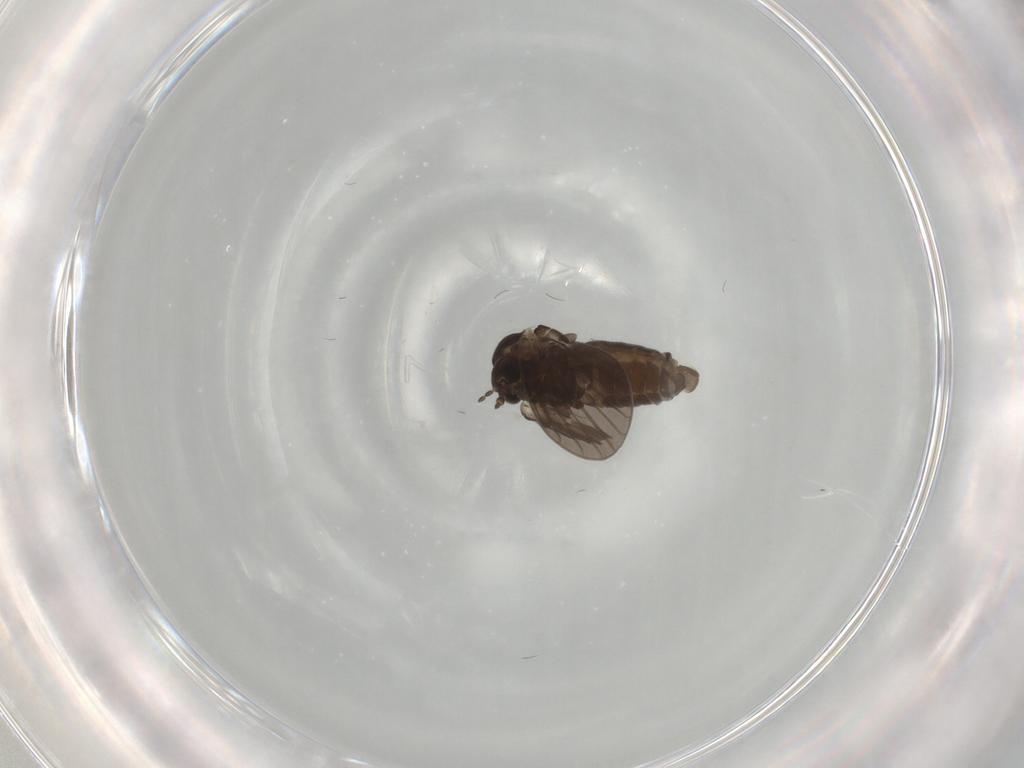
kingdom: Animalia
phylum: Arthropoda
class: Insecta
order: Diptera
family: Psychodidae
